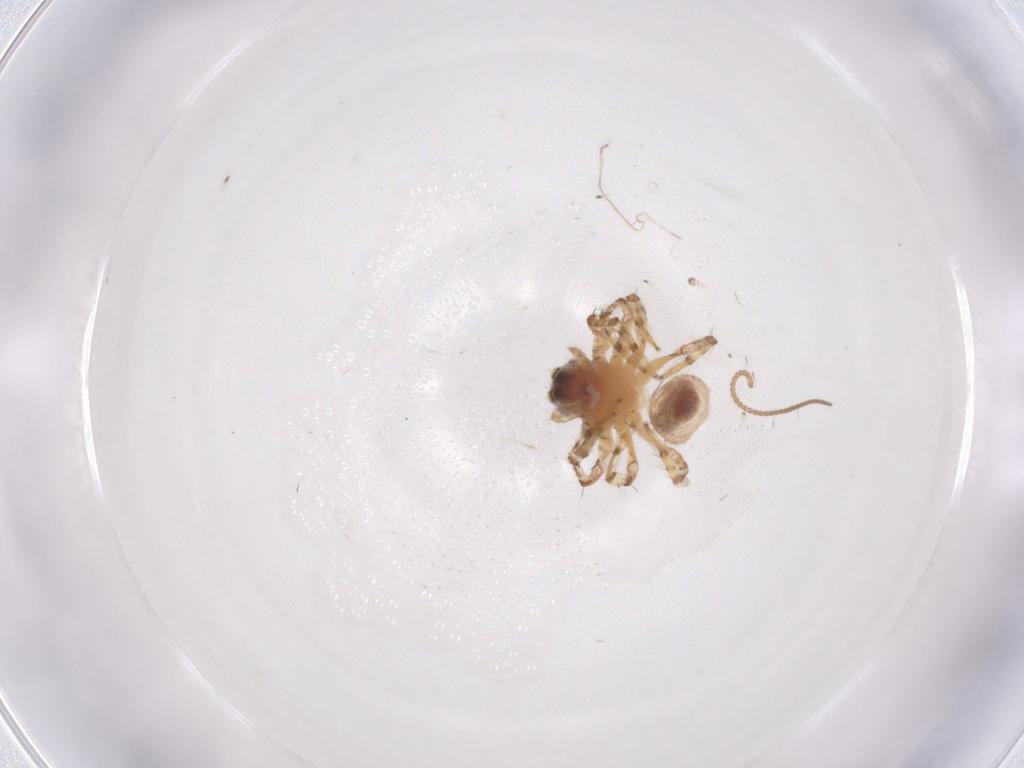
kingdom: Animalia
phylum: Arthropoda
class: Arachnida
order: Araneae
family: Oxyopidae
